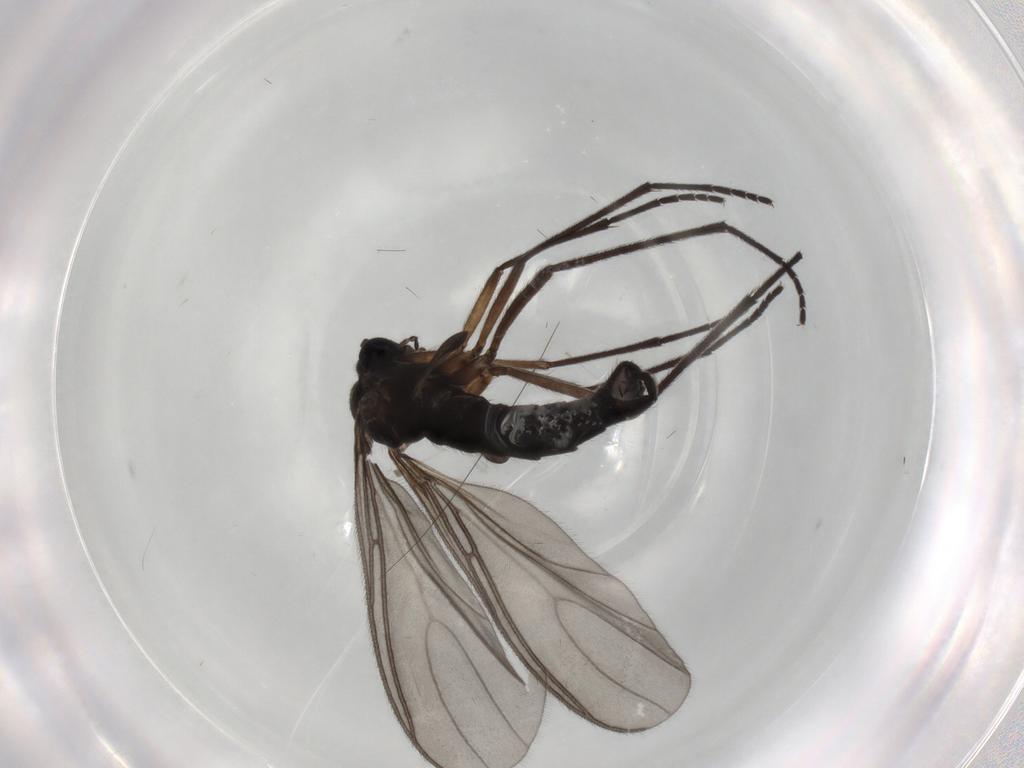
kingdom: Animalia
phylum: Arthropoda
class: Insecta
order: Diptera
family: Sciaridae
